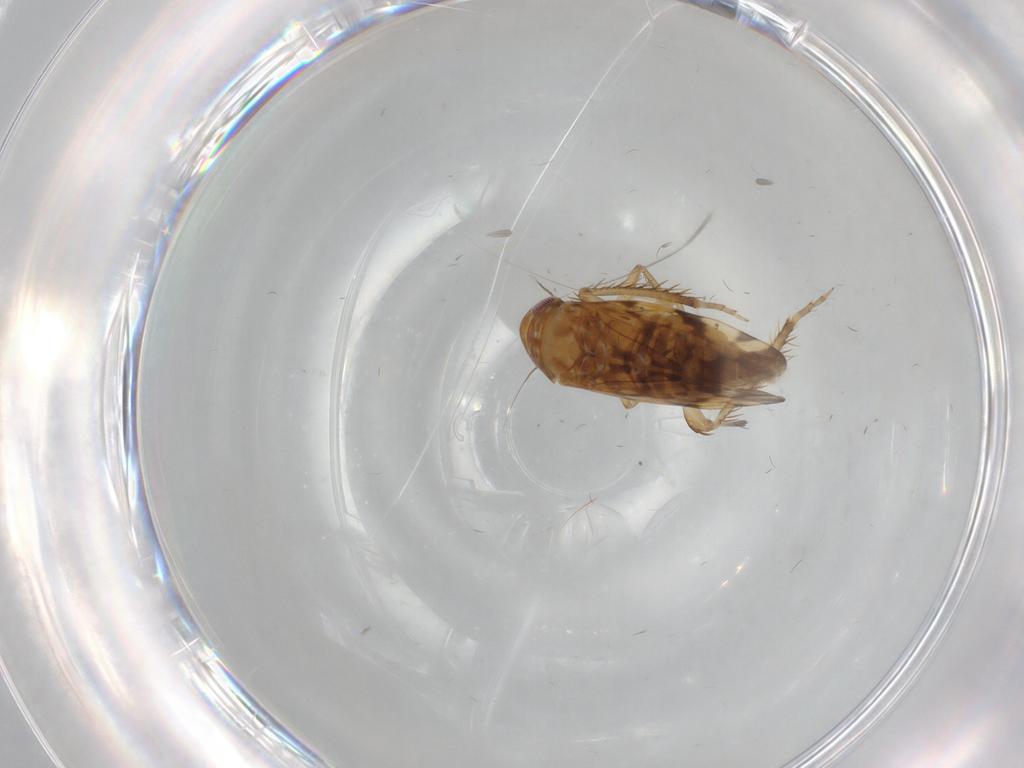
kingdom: Animalia
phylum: Arthropoda
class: Insecta
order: Hemiptera
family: Cicadellidae
